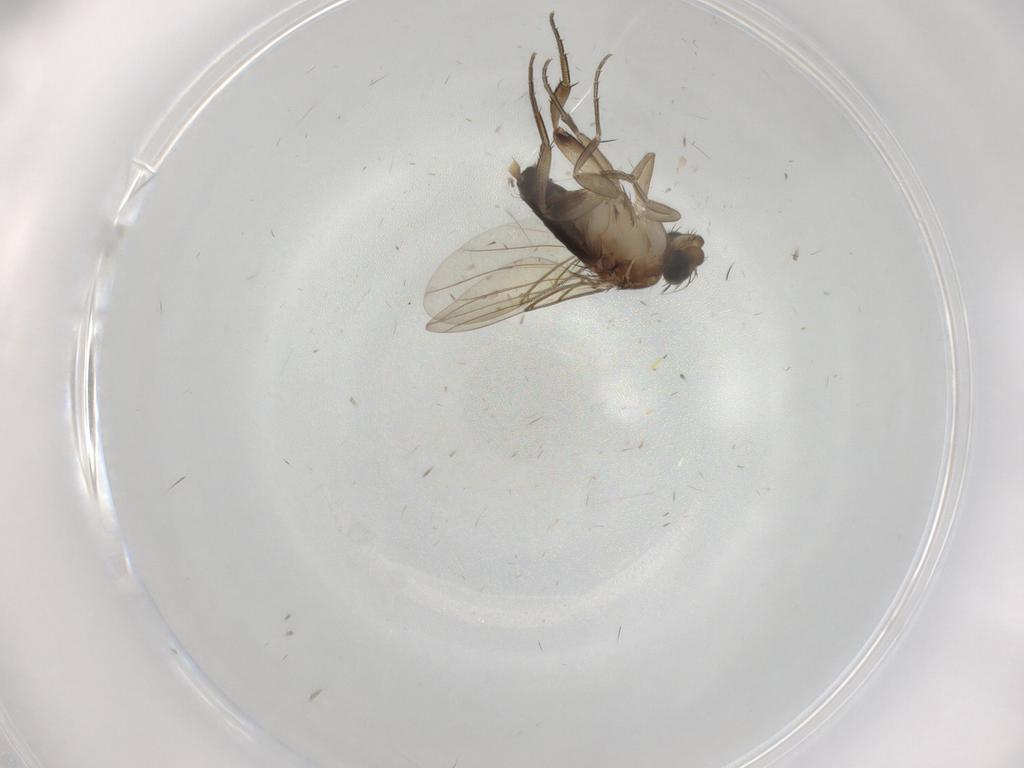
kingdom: Animalia
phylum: Arthropoda
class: Insecta
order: Diptera
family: Phoridae
